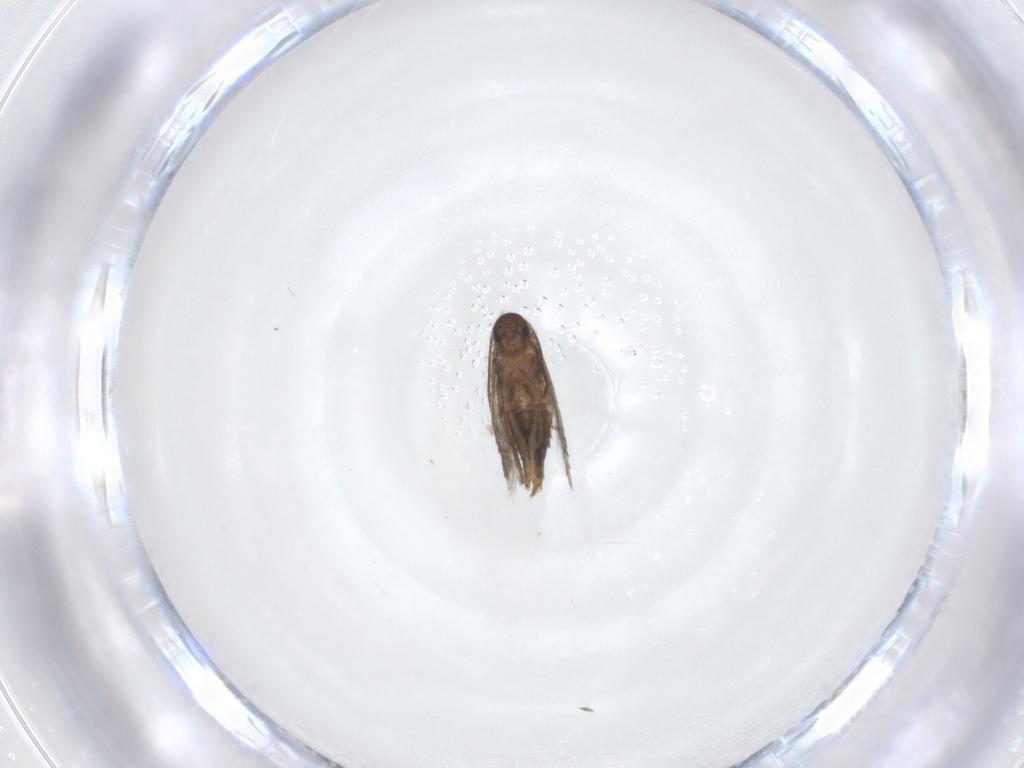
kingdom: Animalia
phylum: Arthropoda
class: Insecta
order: Lepidoptera
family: Heliozelidae
